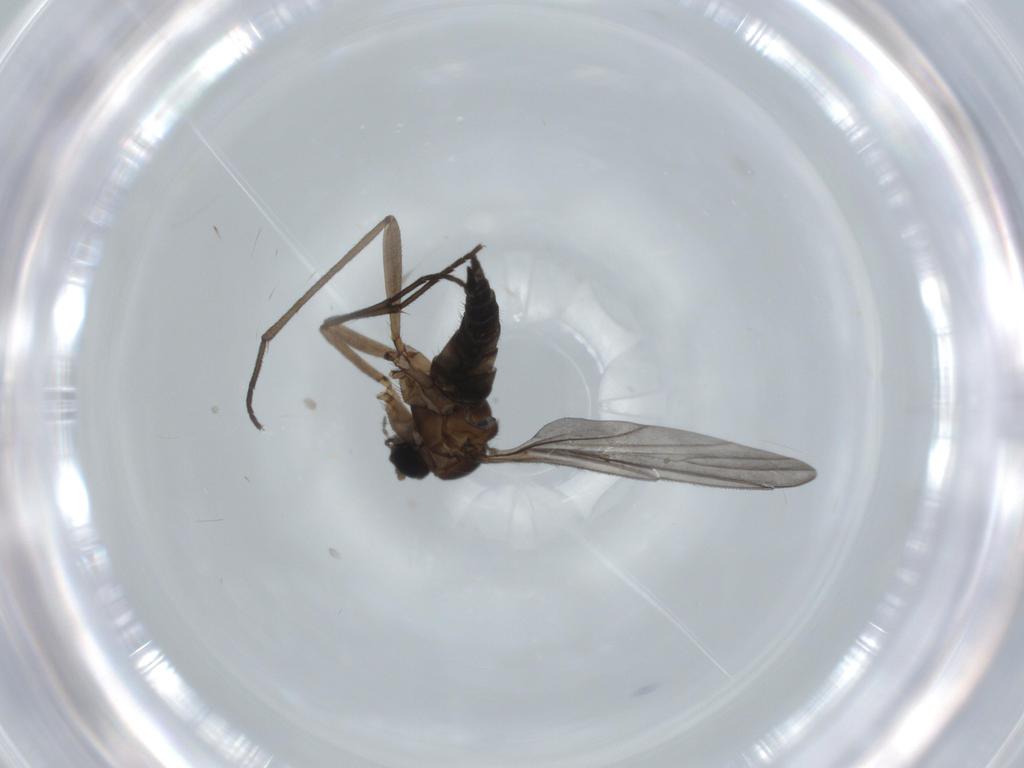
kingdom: Animalia
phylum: Arthropoda
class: Insecta
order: Diptera
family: Sciaridae
